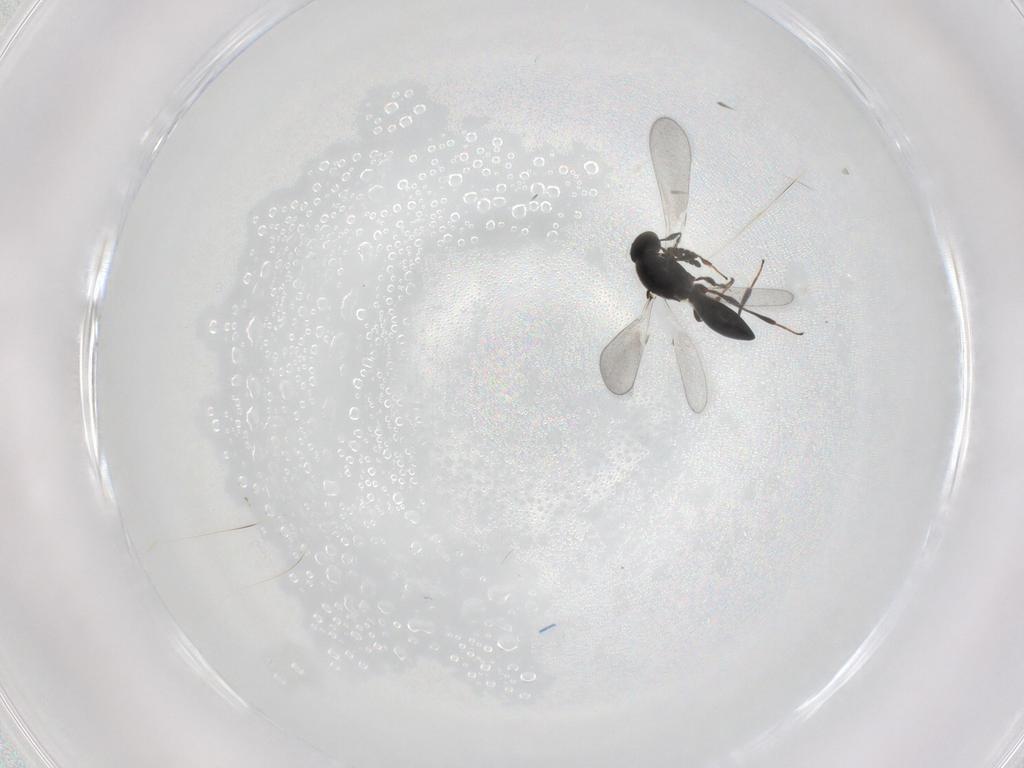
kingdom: Animalia
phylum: Arthropoda
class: Insecta
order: Hymenoptera
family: Platygastridae
